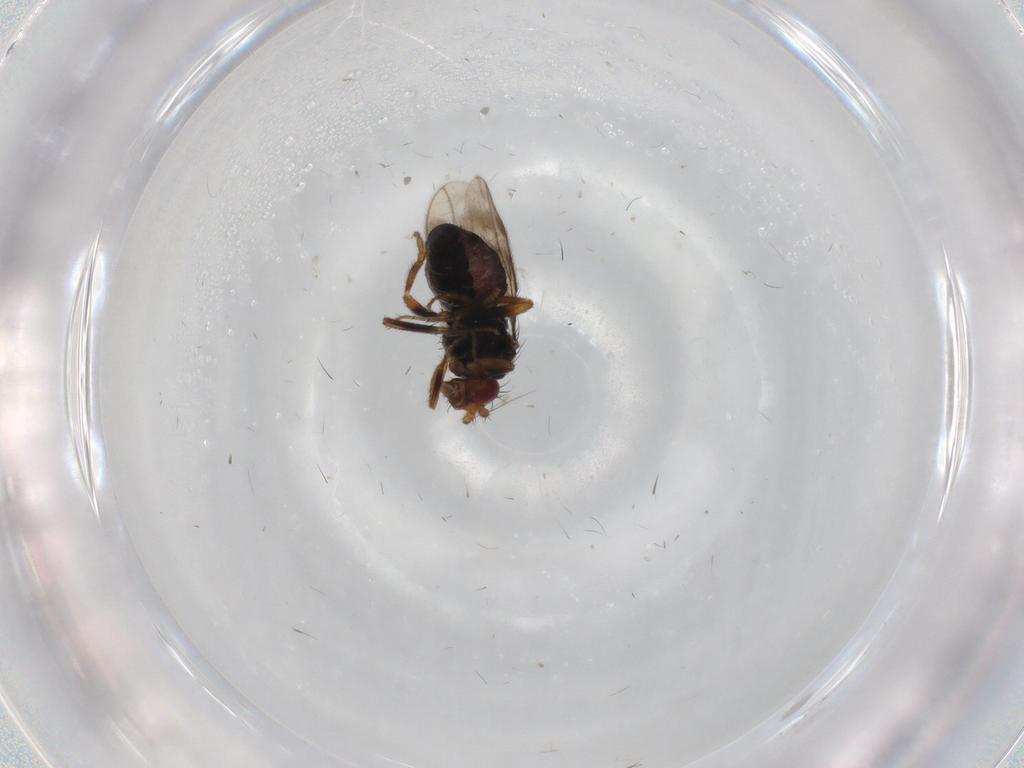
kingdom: Animalia
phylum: Arthropoda
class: Insecta
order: Diptera
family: Sphaeroceridae
